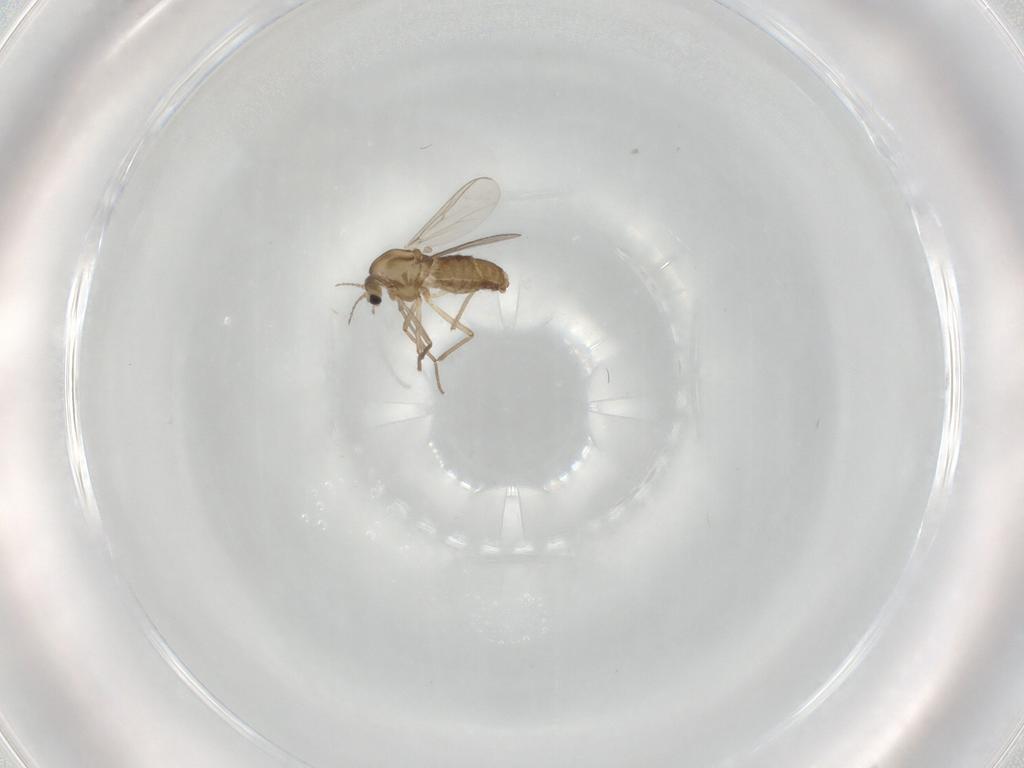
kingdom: Animalia
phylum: Arthropoda
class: Insecta
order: Diptera
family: Chironomidae
